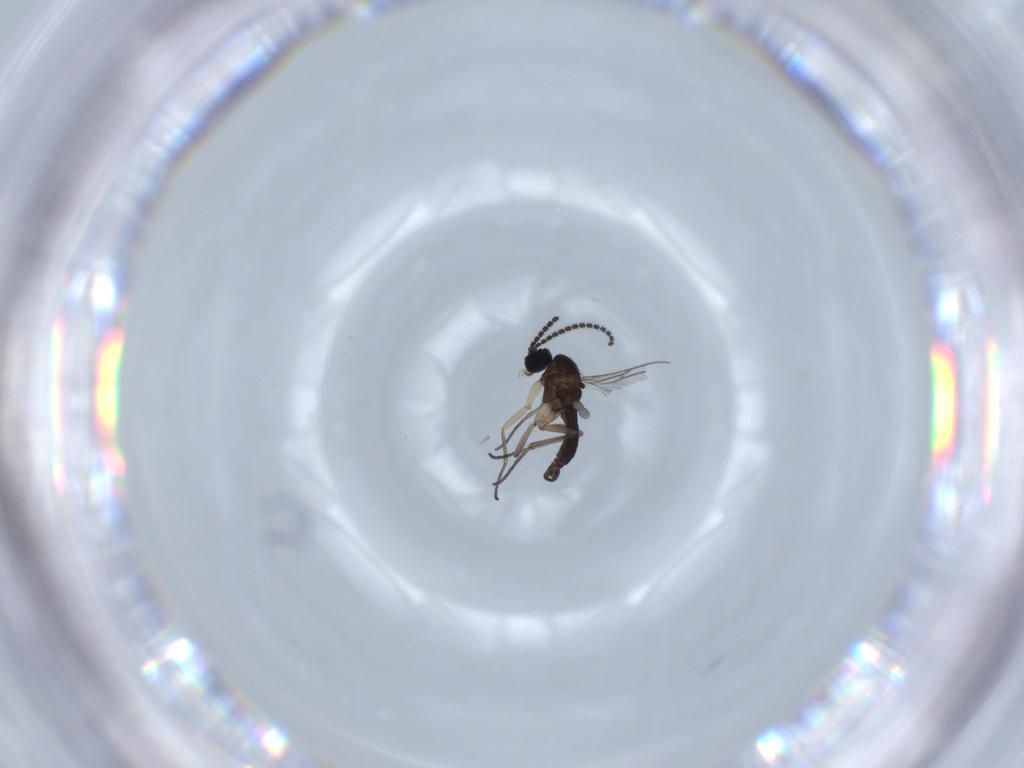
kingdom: Animalia
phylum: Arthropoda
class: Insecta
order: Diptera
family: Sciaridae
